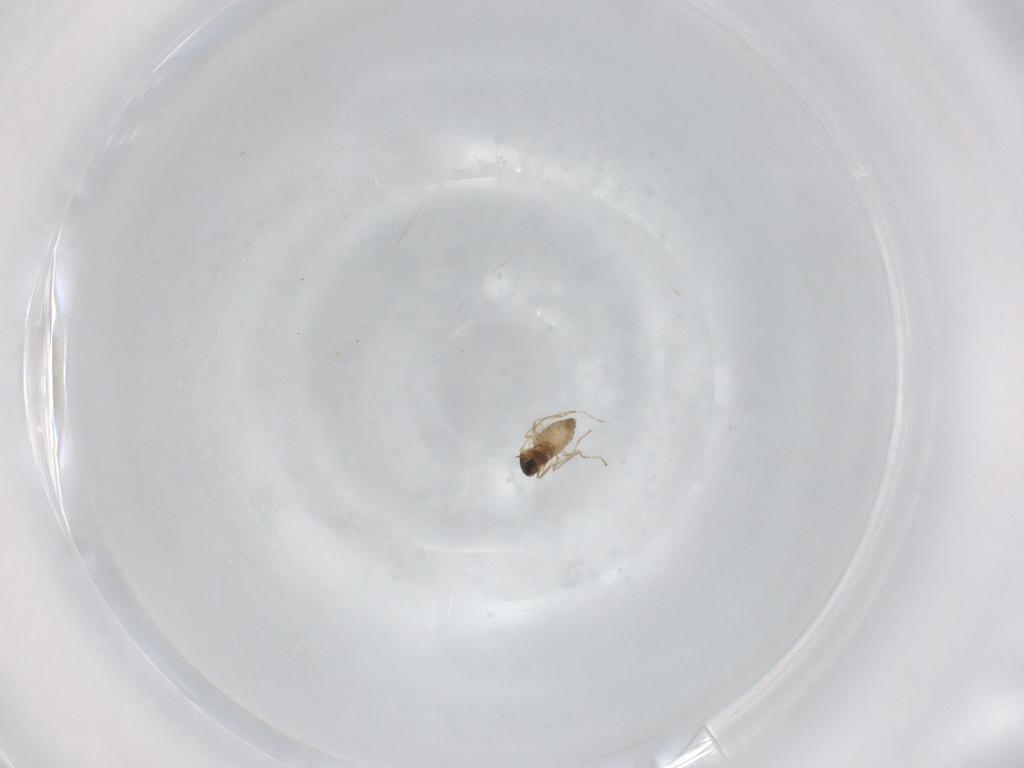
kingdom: Animalia
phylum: Arthropoda
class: Insecta
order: Diptera
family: Cecidomyiidae
